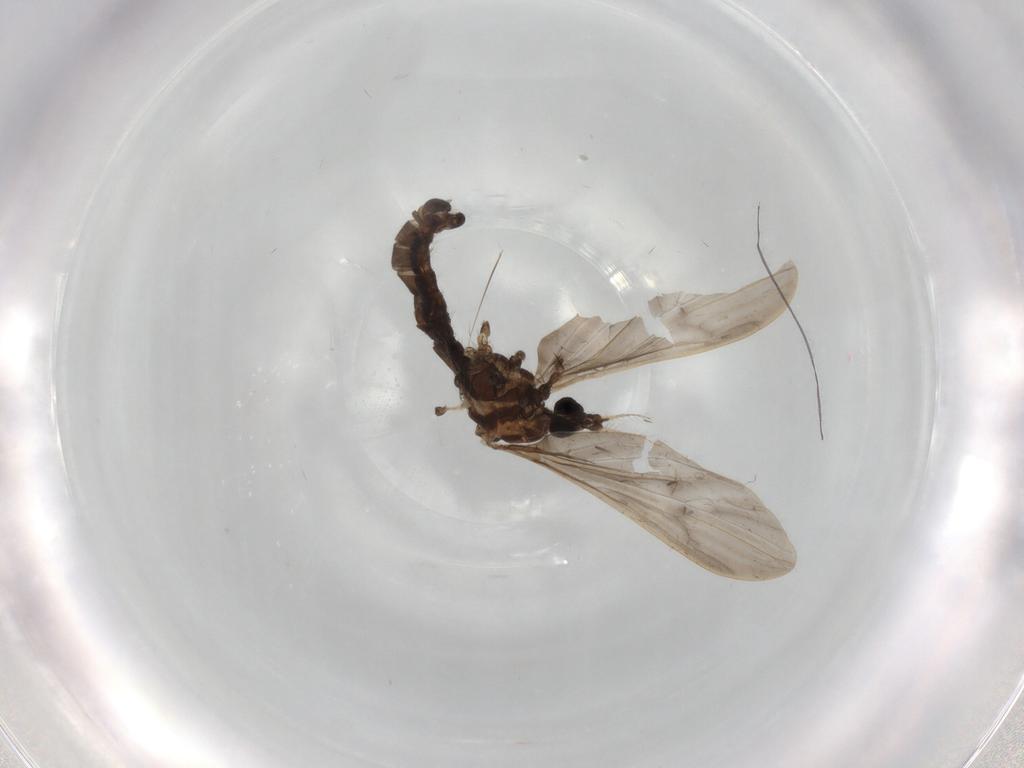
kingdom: Animalia
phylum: Arthropoda
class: Insecta
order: Diptera
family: Psychodidae
